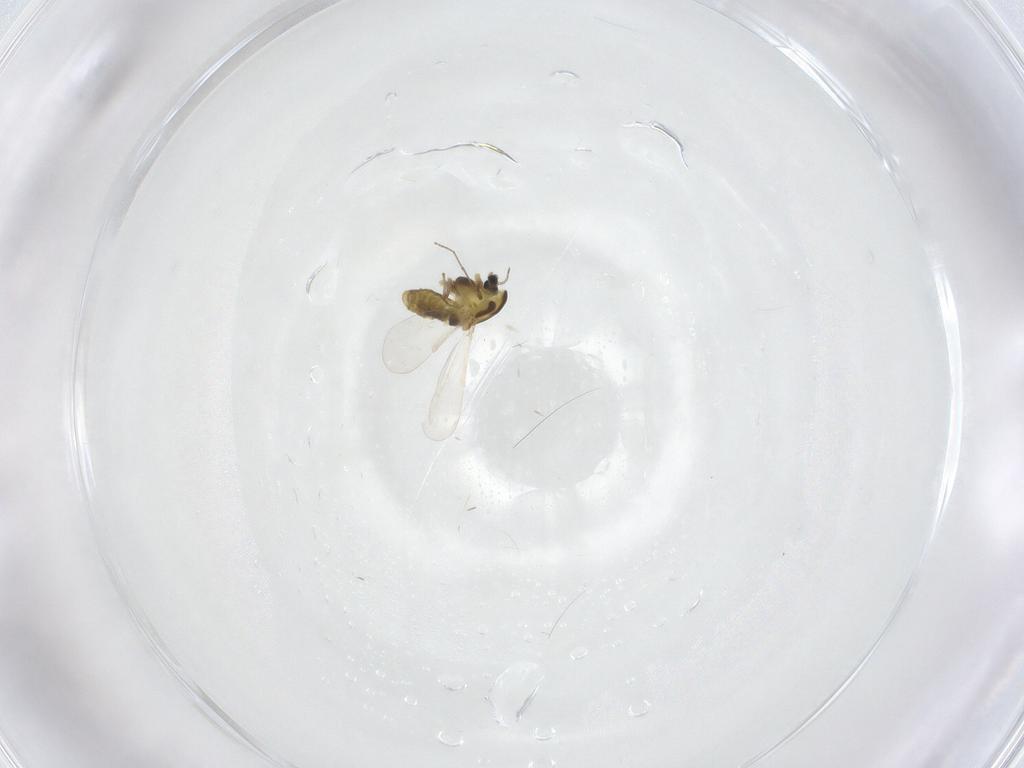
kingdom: Animalia
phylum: Arthropoda
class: Insecta
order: Diptera
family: Chironomidae
